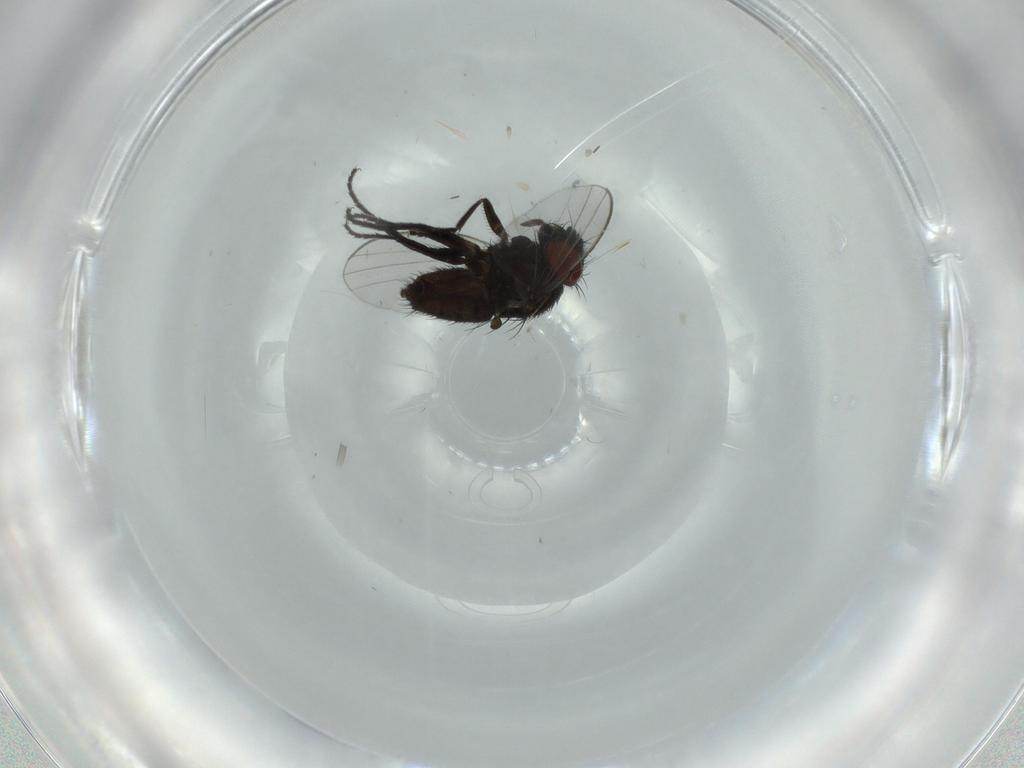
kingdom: Animalia
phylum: Arthropoda
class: Insecta
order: Diptera
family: Milichiidae
